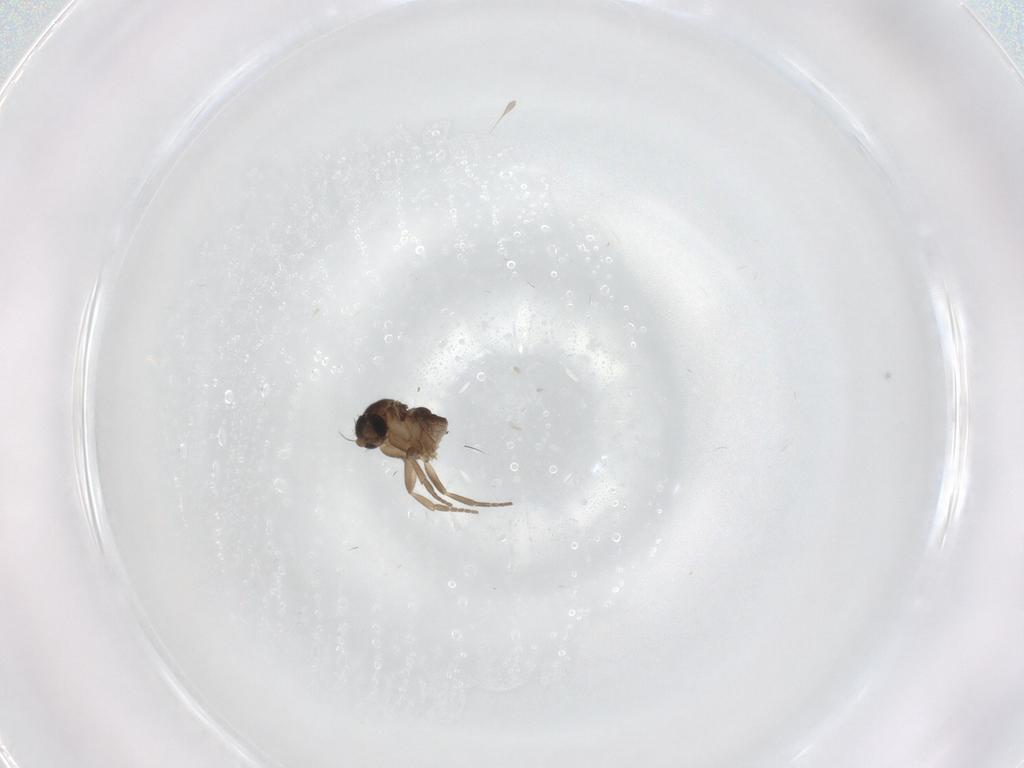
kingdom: Animalia
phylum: Arthropoda
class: Insecta
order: Diptera
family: Phoridae
